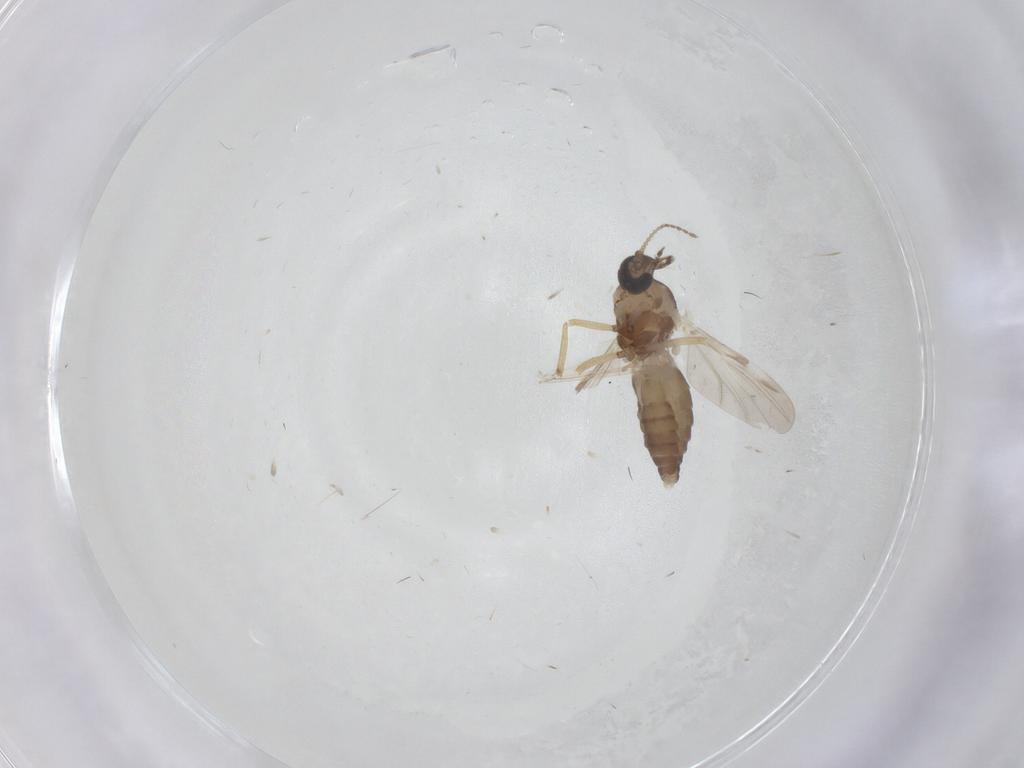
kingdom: Animalia
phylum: Arthropoda
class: Insecta
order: Diptera
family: Ceratopogonidae
